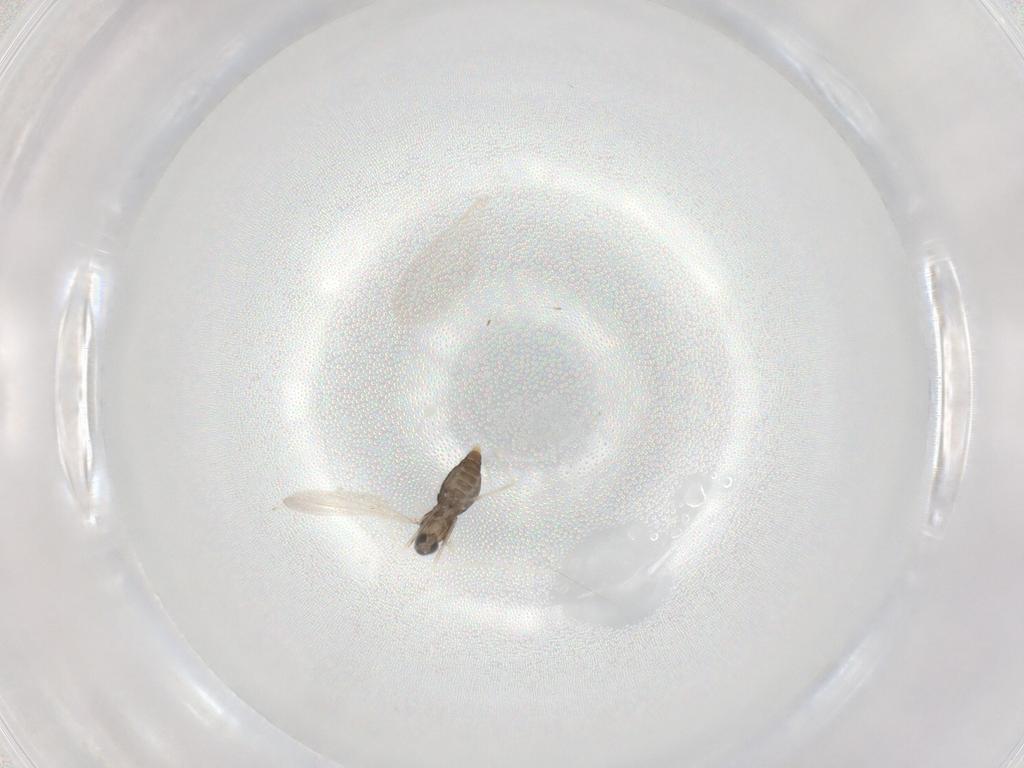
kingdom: Animalia
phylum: Arthropoda
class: Insecta
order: Diptera
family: Cecidomyiidae
